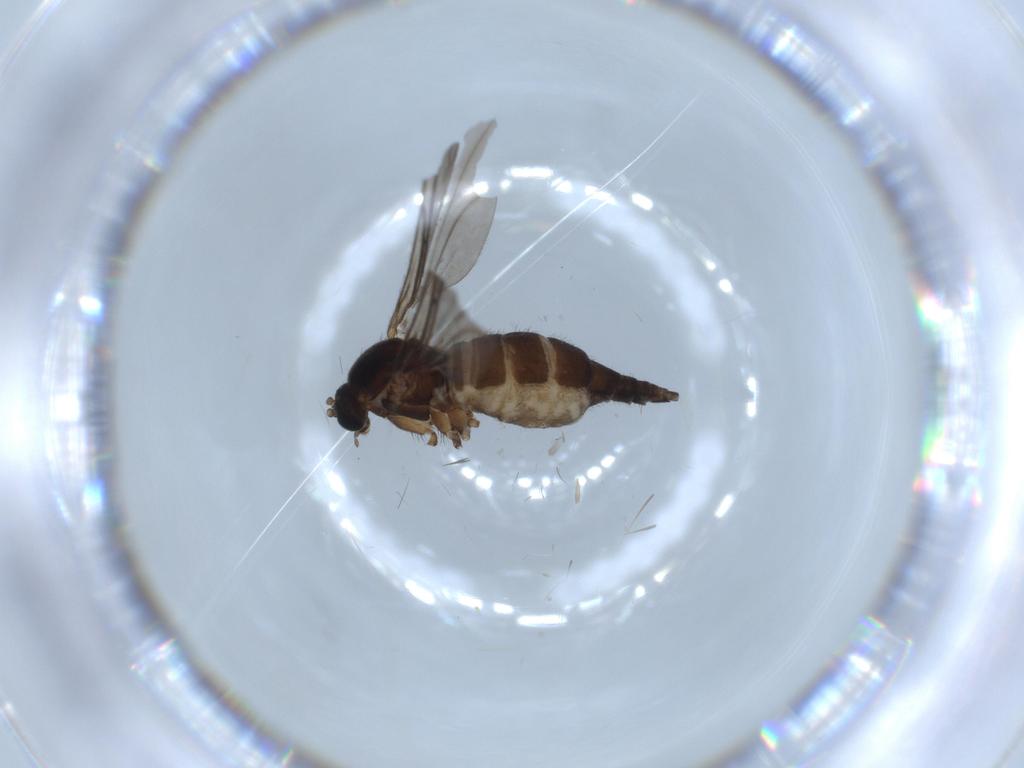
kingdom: Animalia
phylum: Arthropoda
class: Insecta
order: Diptera
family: Sciaridae
